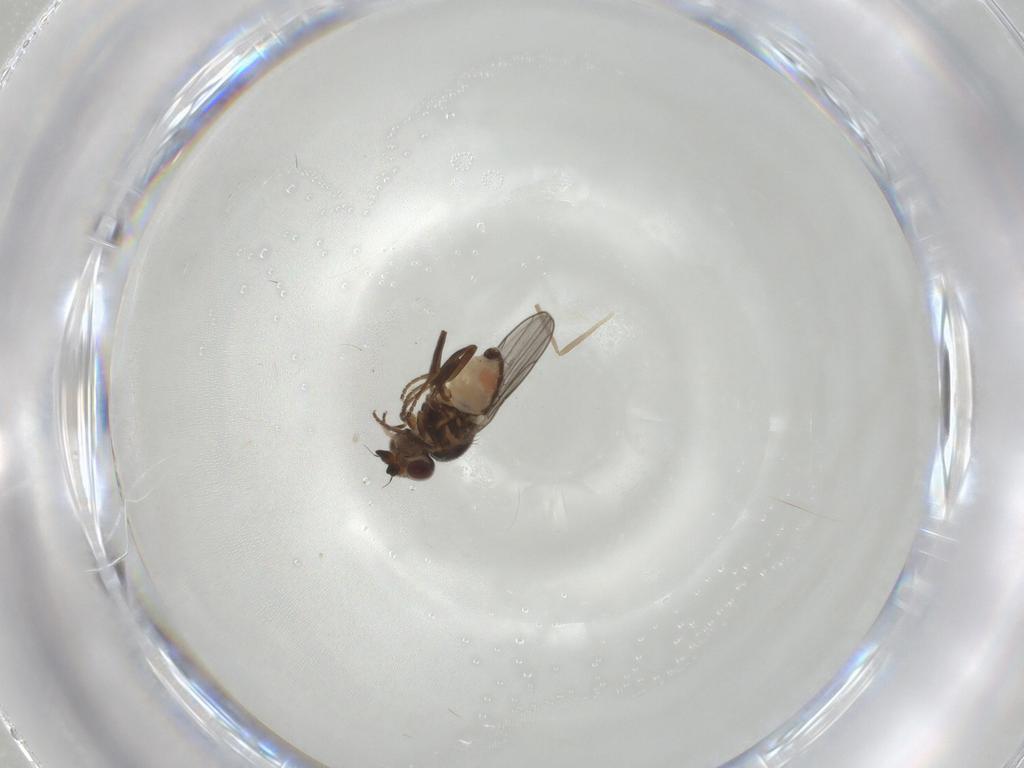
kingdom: Animalia
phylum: Arthropoda
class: Insecta
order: Diptera
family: Chloropidae
